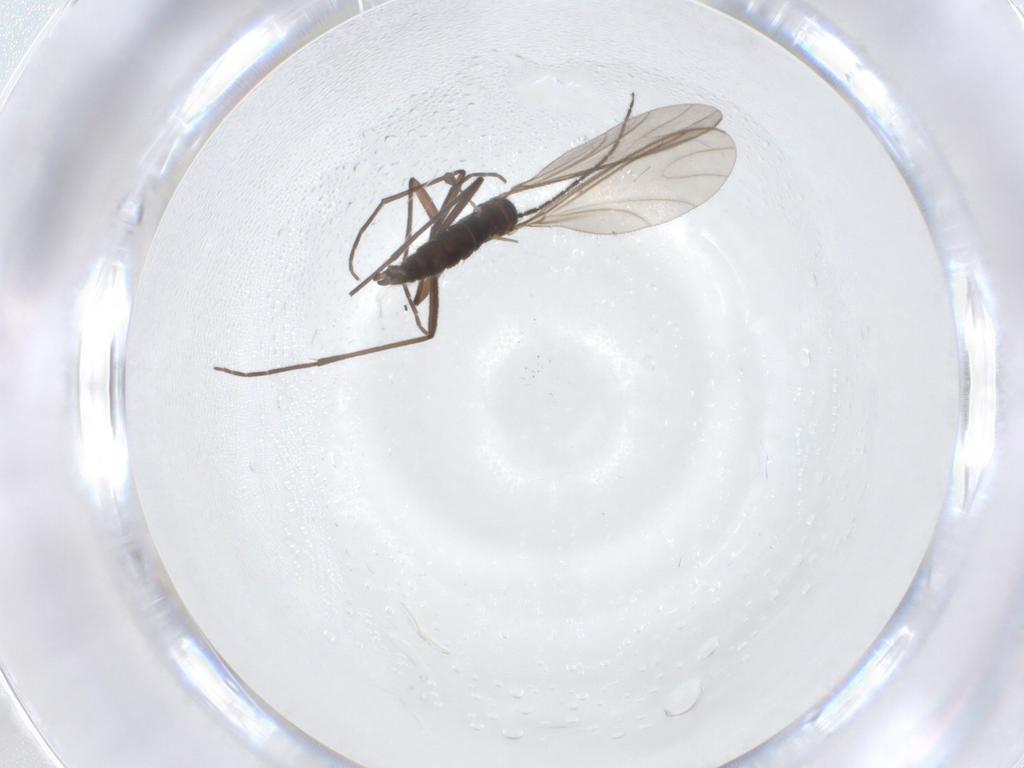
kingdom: Animalia
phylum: Arthropoda
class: Insecta
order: Diptera
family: Sciaridae
